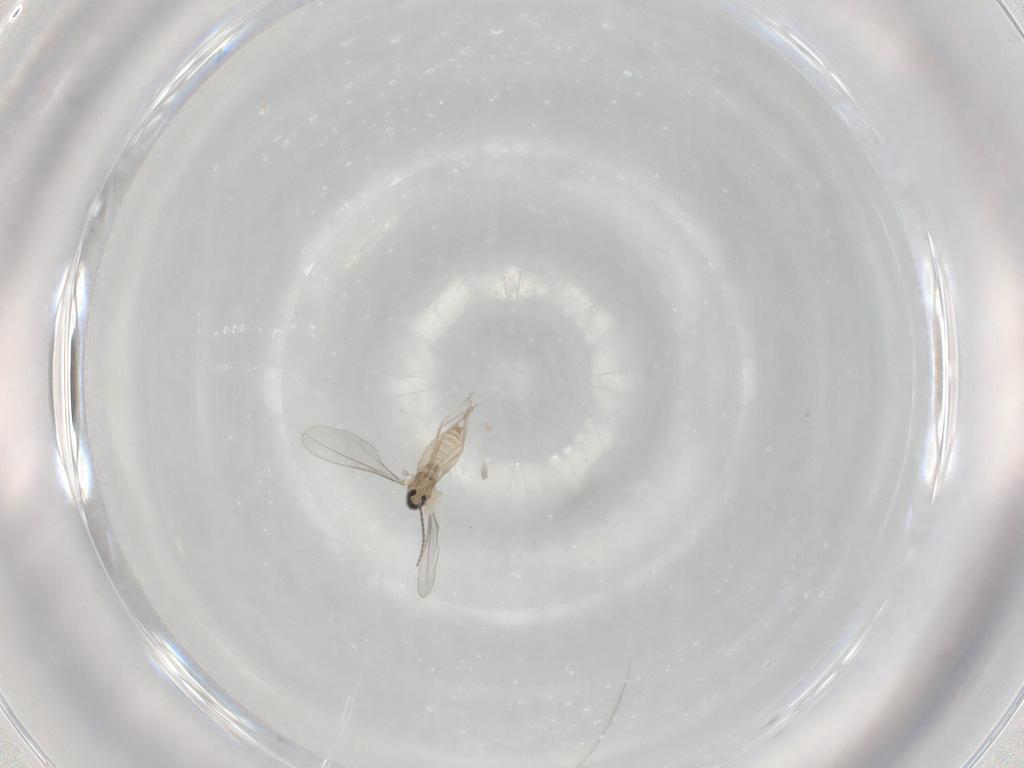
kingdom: Animalia
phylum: Arthropoda
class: Insecta
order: Diptera
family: Cecidomyiidae
